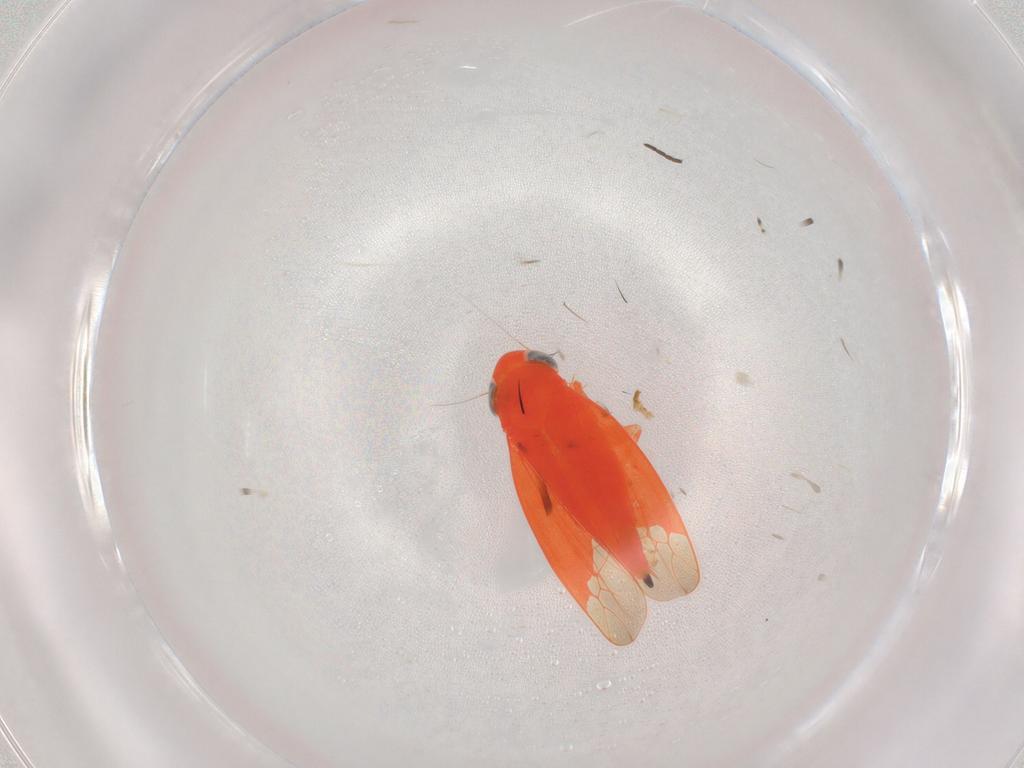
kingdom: Animalia
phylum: Arthropoda
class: Insecta
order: Hemiptera
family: Cicadellidae
